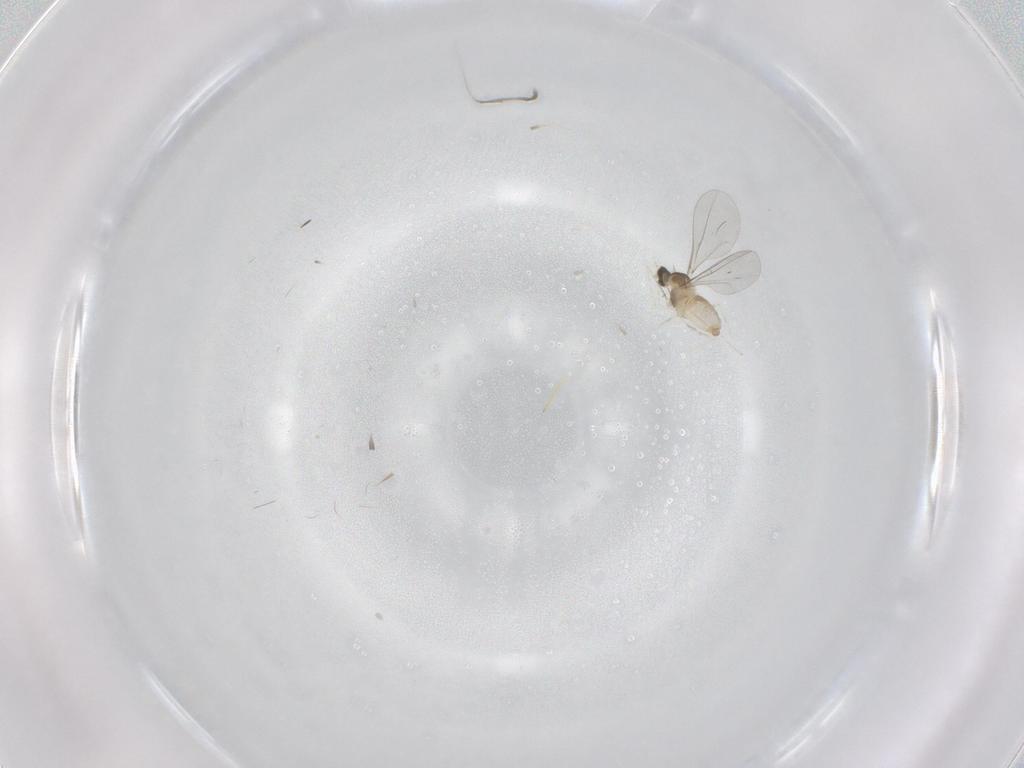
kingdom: Animalia
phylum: Arthropoda
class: Insecta
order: Diptera
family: Cecidomyiidae
